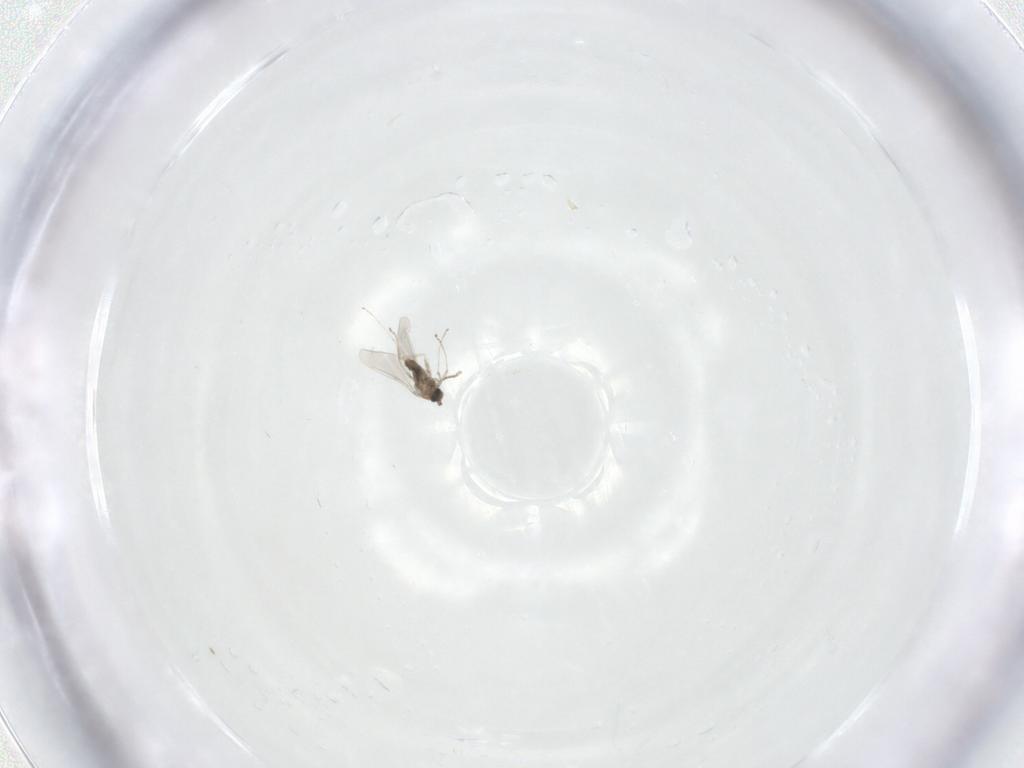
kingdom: Animalia
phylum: Arthropoda
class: Insecta
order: Diptera
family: Cecidomyiidae
